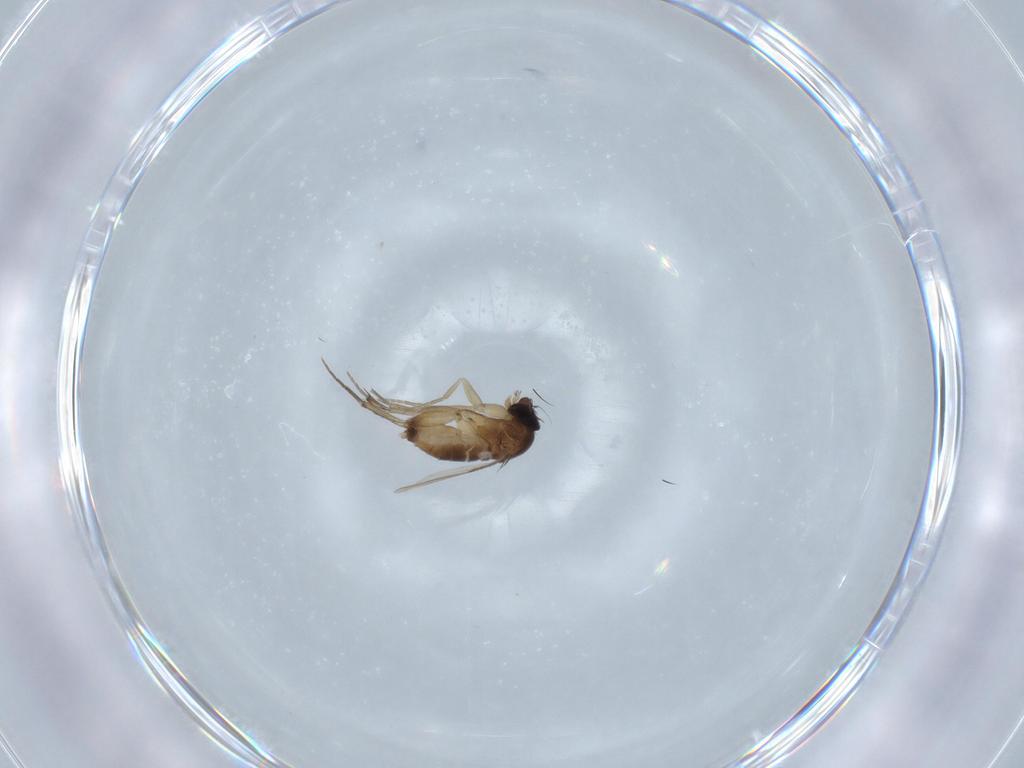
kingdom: Animalia
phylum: Arthropoda
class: Insecta
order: Diptera
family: Phoridae
